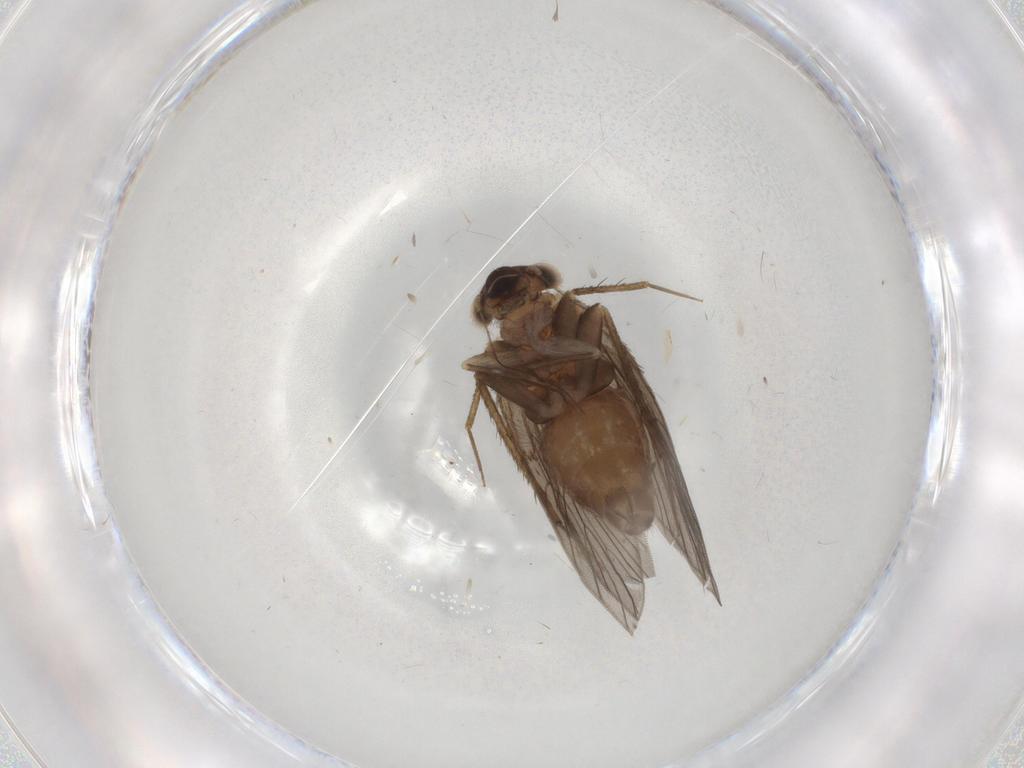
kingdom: Animalia
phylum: Arthropoda
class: Insecta
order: Psocodea
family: Lepidopsocidae
